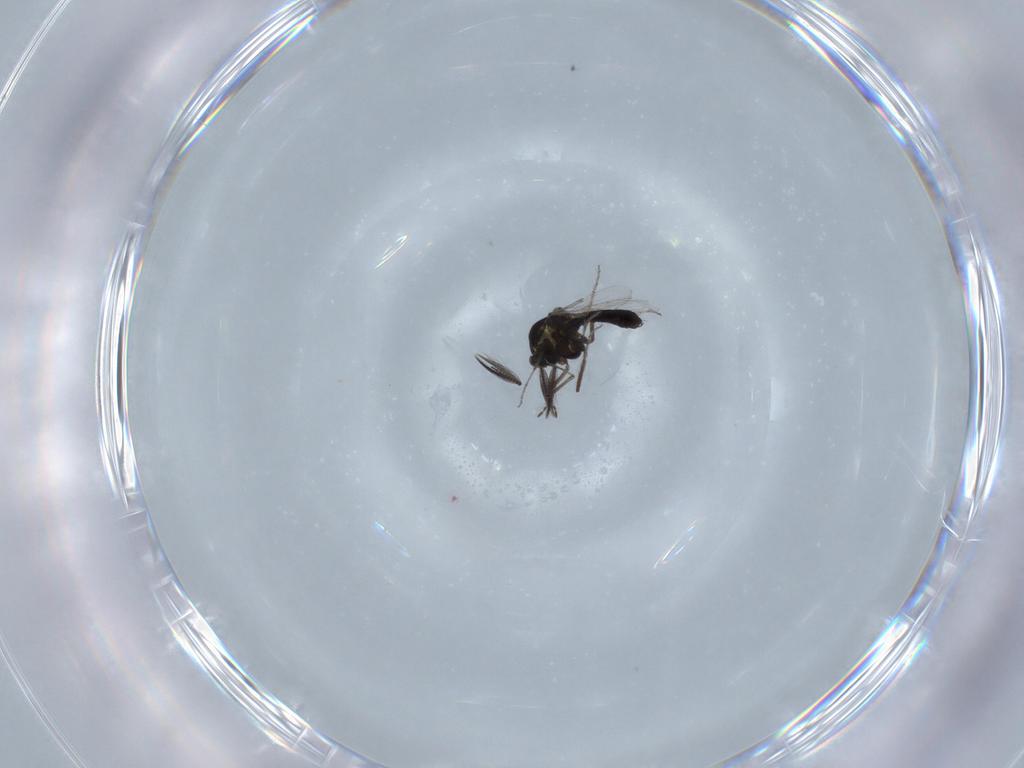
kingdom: Animalia
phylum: Arthropoda
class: Insecta
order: Diptera
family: Ceratopogonidae
